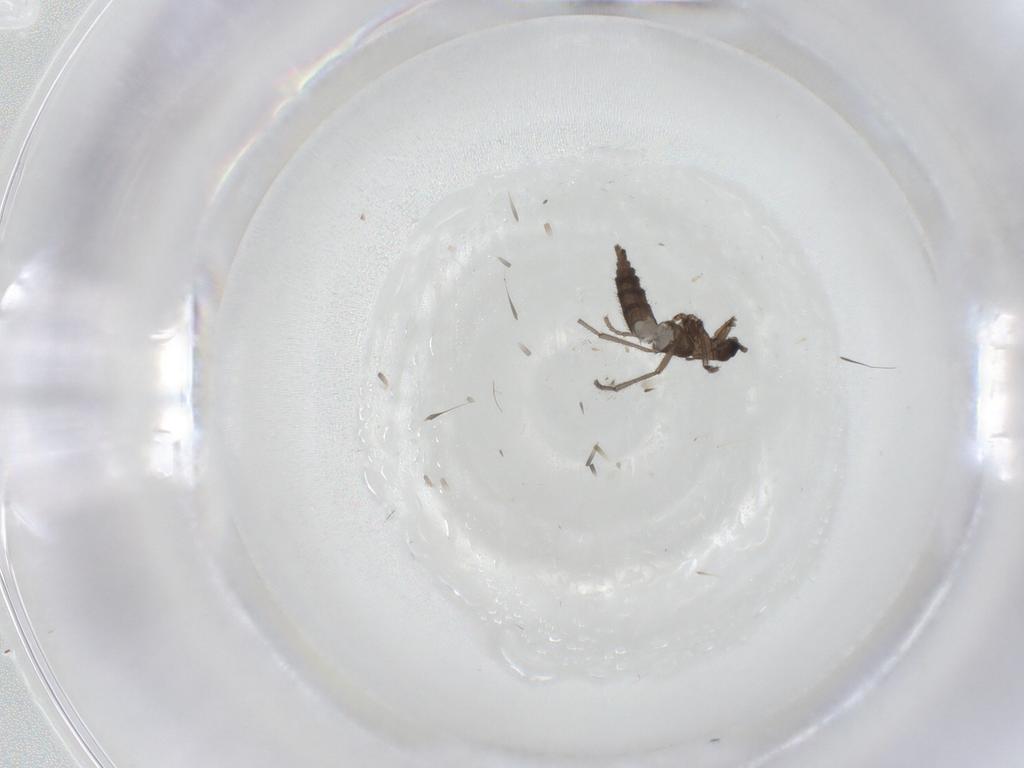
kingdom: Animalia
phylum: Arthropoda
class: Insecta
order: Diptera
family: Sciaridae
